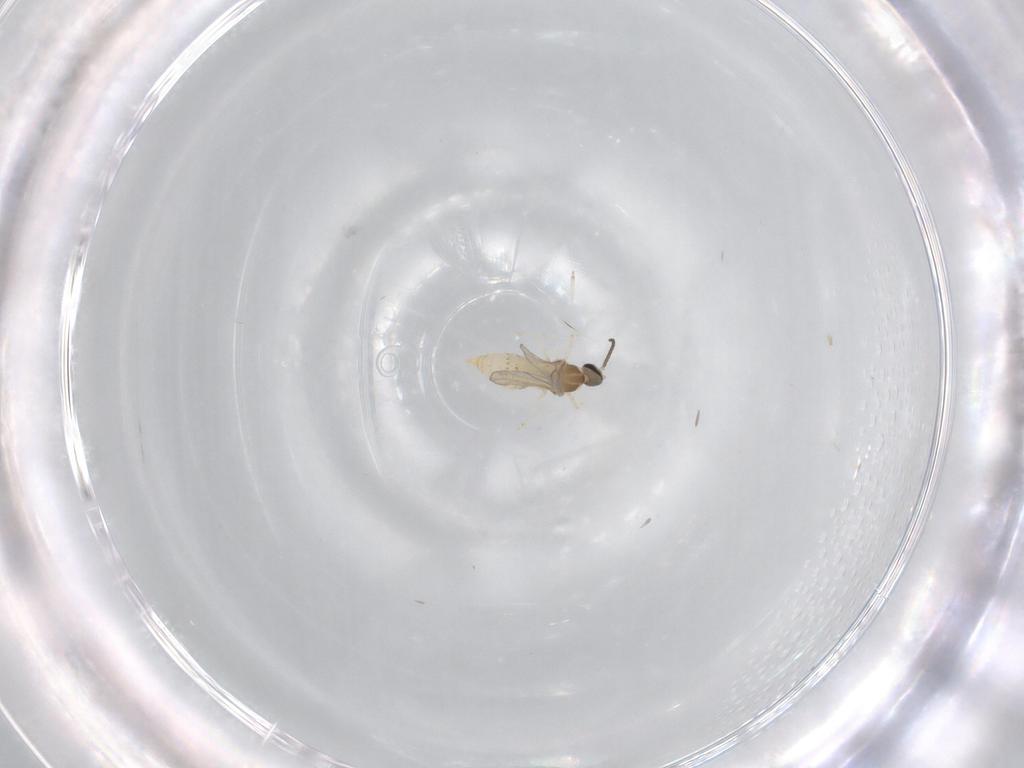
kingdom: Animalia
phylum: Arthropoda
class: Insecta
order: Diptera
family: Cecidomyiidae
